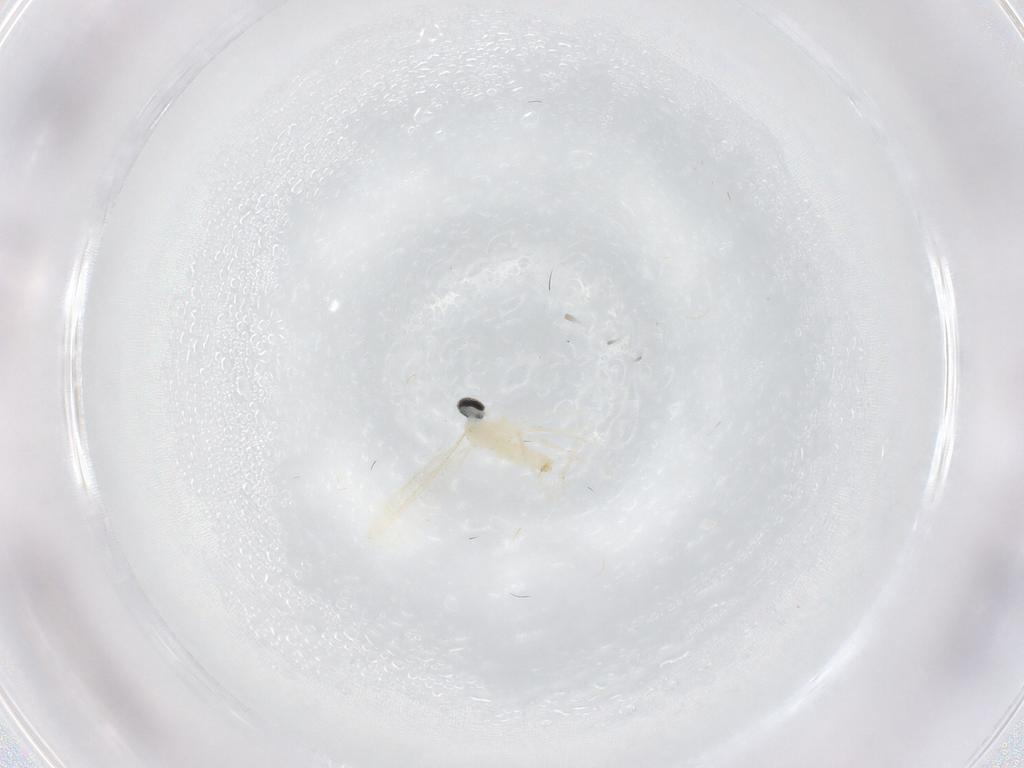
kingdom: Animalia
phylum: Arthropoda
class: Insecta
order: Diptera
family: Cecidomyiidae
